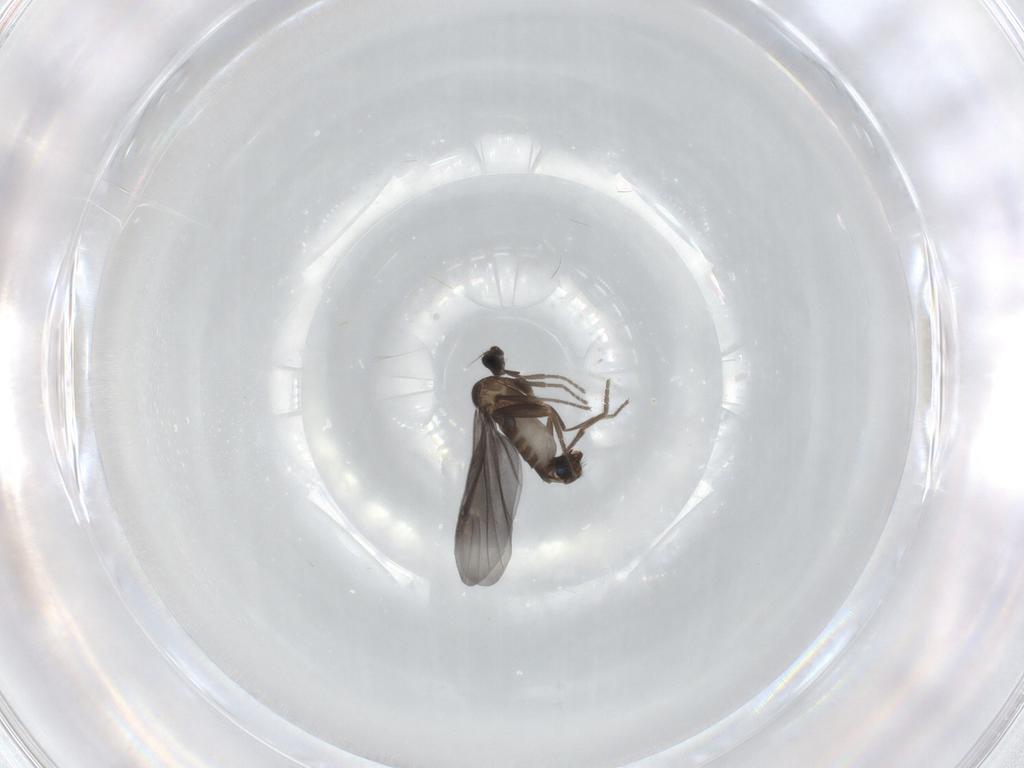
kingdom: Animalia
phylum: Arthropoda
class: Insecta
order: Diptera
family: Phoridae
